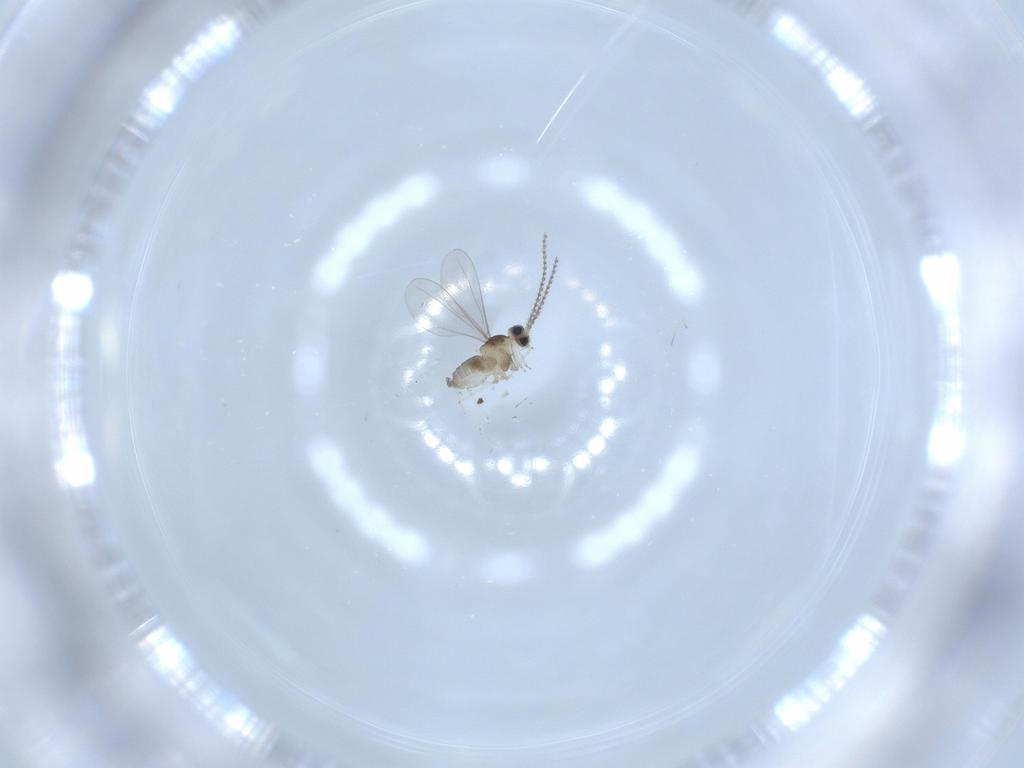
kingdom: Animalia
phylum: Arthropoda
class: Insecta
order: Diptera
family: Cecidomyiidae
